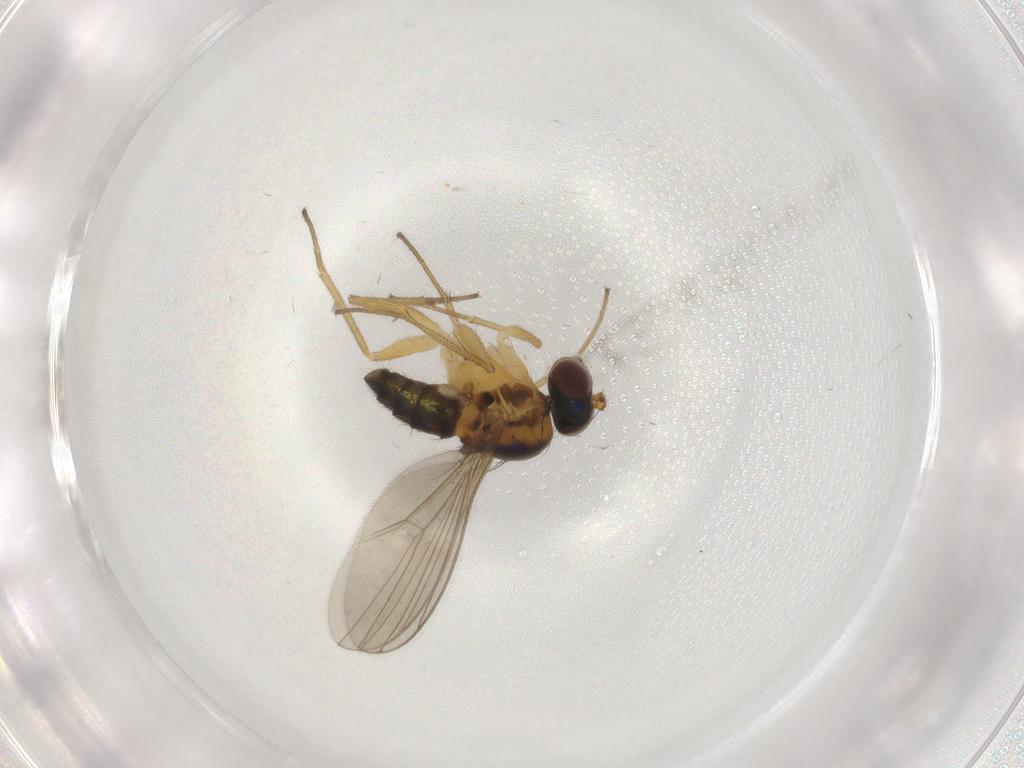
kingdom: Animalia
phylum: Arthropoda
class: Insecta
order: Diptera
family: Dolichopodidae
